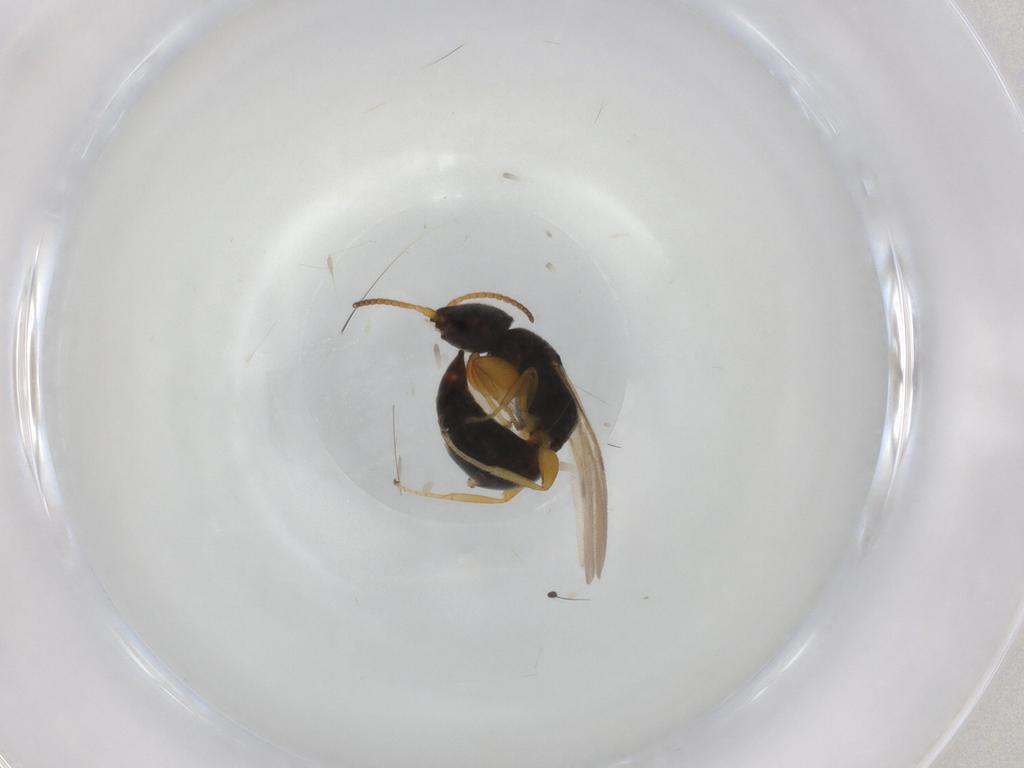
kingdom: Animalia
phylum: Arthropoda
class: Insecta
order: Hymenoptera
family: Bethylidae
